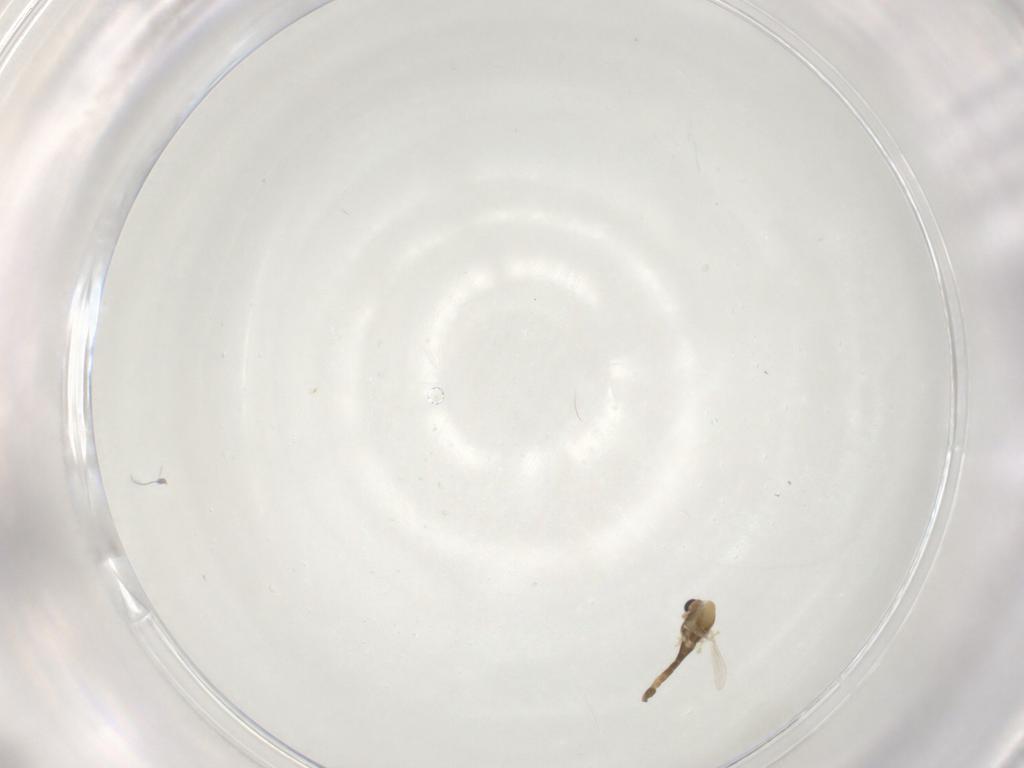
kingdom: Animalia
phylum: Arthropoda
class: Insecta
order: Diptera
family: Chironomidae
